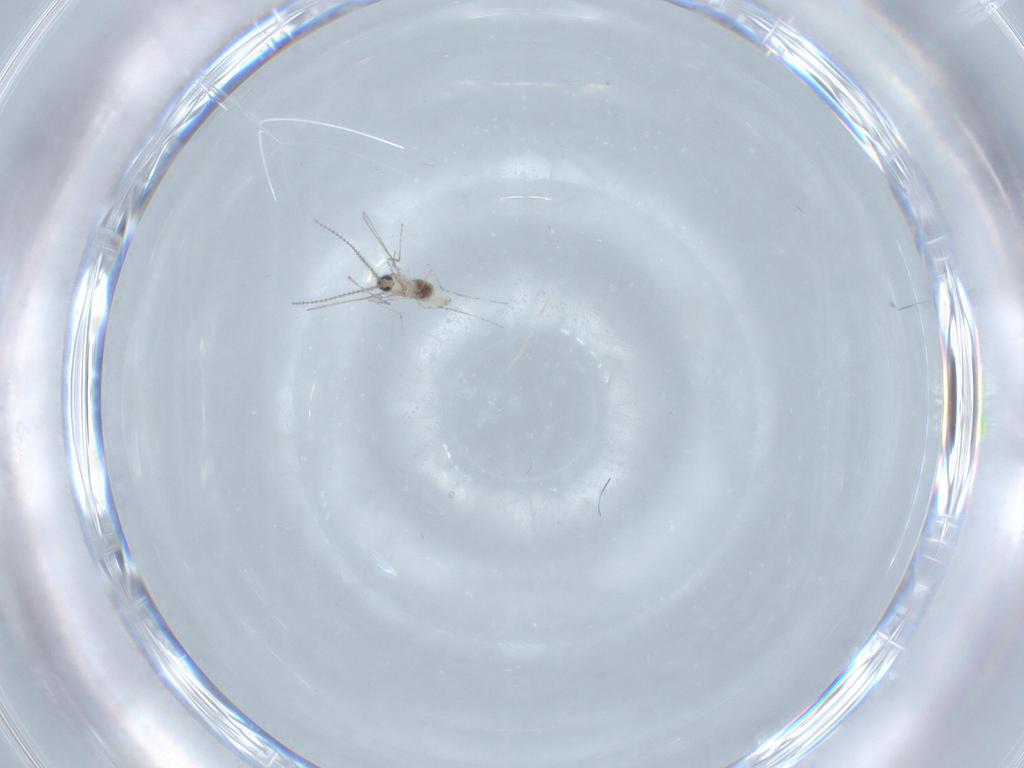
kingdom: Animalia
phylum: Arthropoda
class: Insecta
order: Diptera
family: Chironomidae
